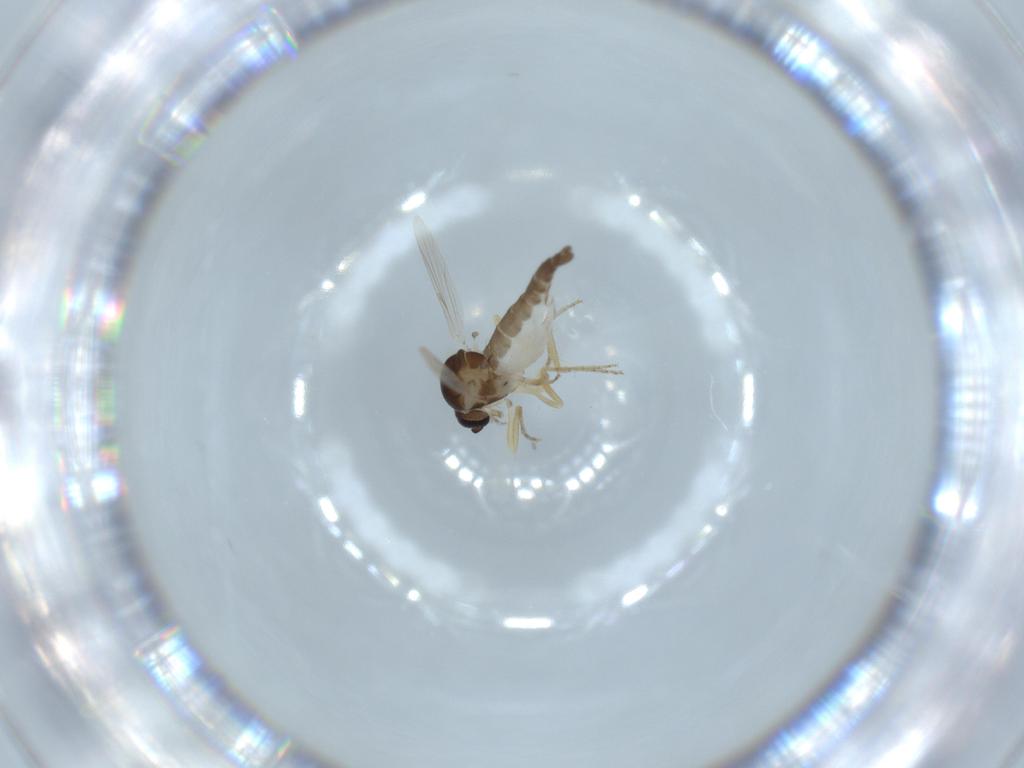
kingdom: Animalia
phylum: Arthropoda
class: Insecta
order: Diptera
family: Ceratopogonidae
